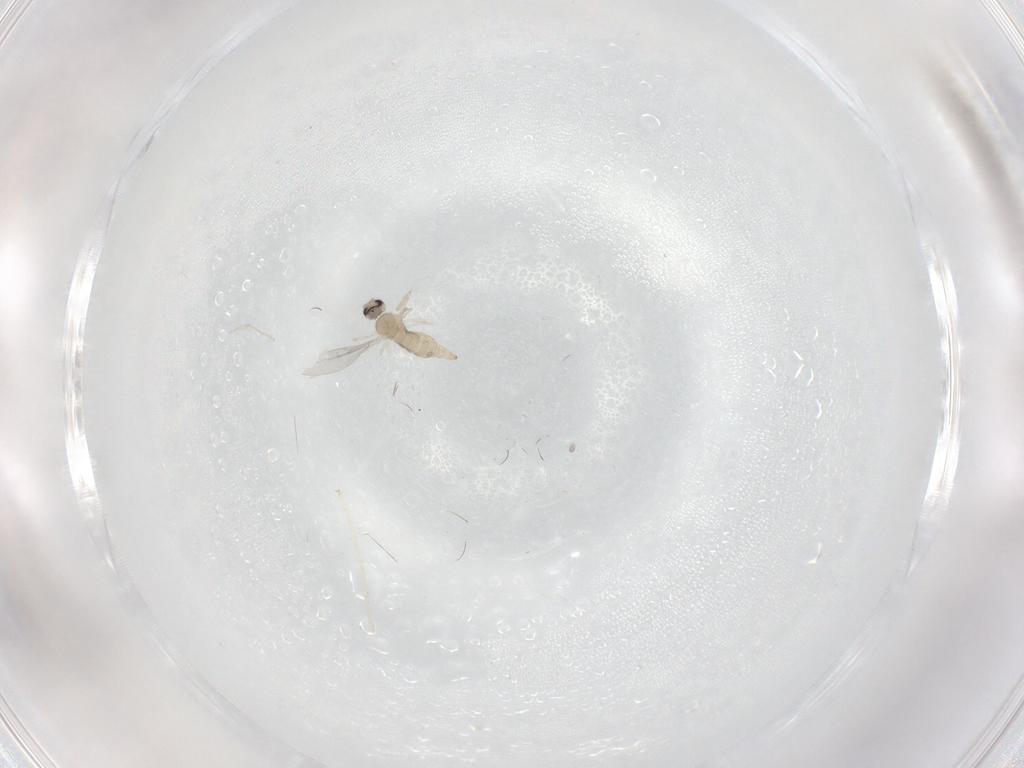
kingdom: Animalia
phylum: Arthropoda
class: Insecta
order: Diptera
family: Cecidomyiidae
